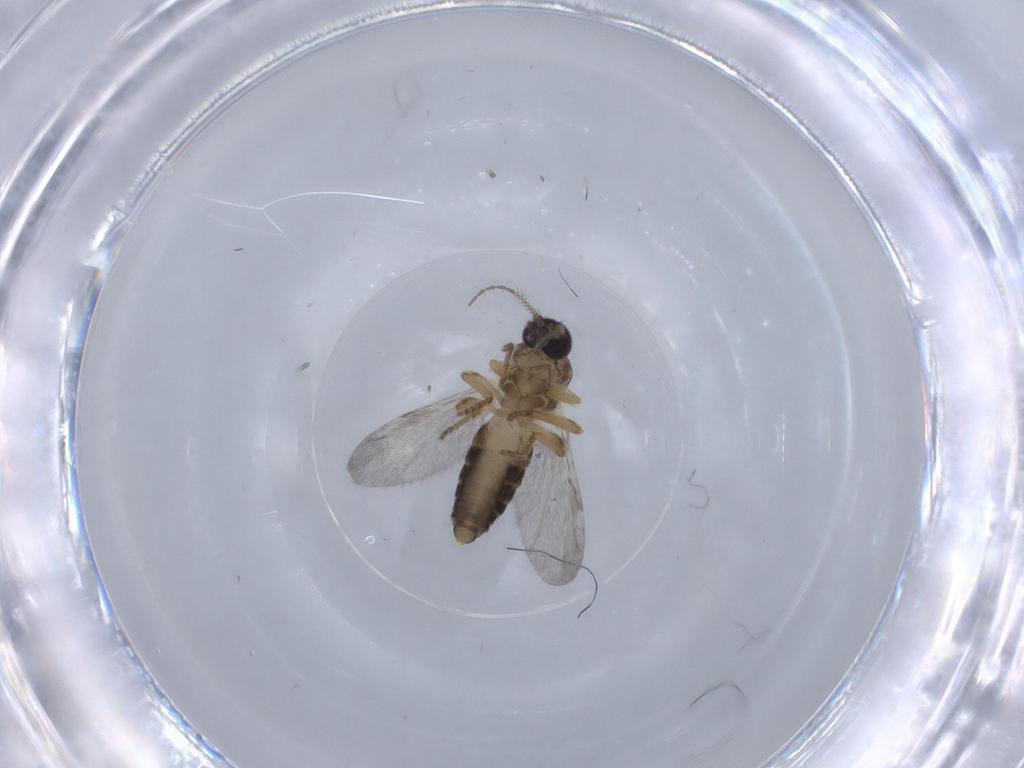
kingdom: Animalia
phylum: Arthropoda
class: Insecta
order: Diptera
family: Ceratopogonidae
